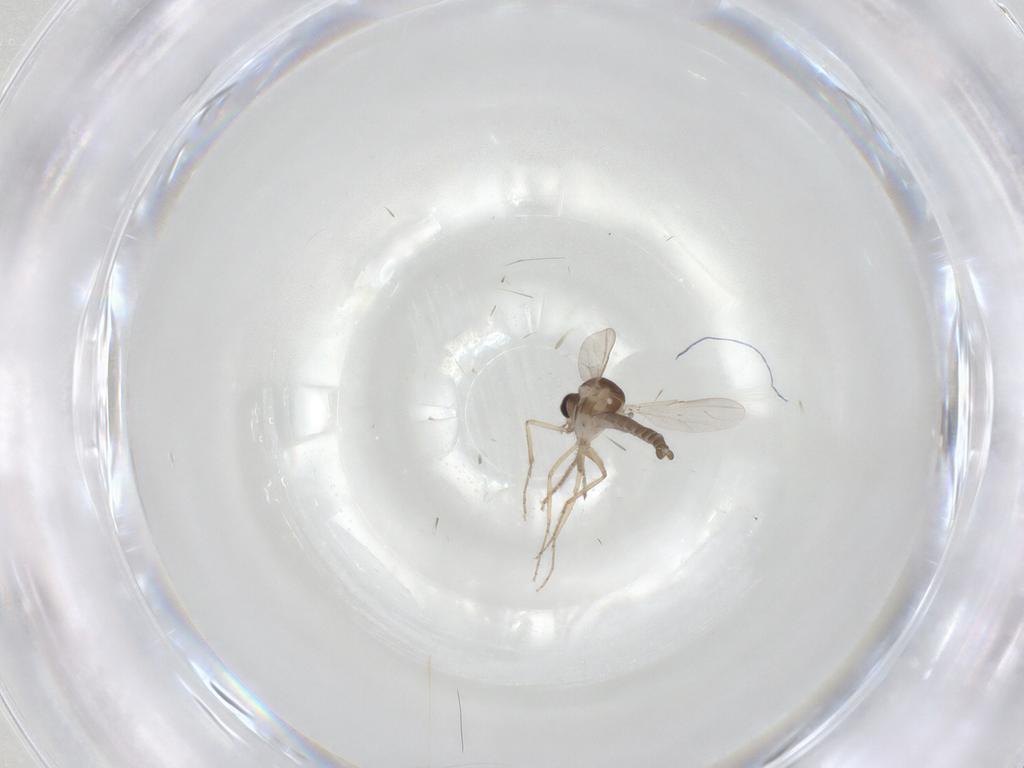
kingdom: Animalia
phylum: Arthropoda
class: Insecta
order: Diptera
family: Ceratopogonidae
